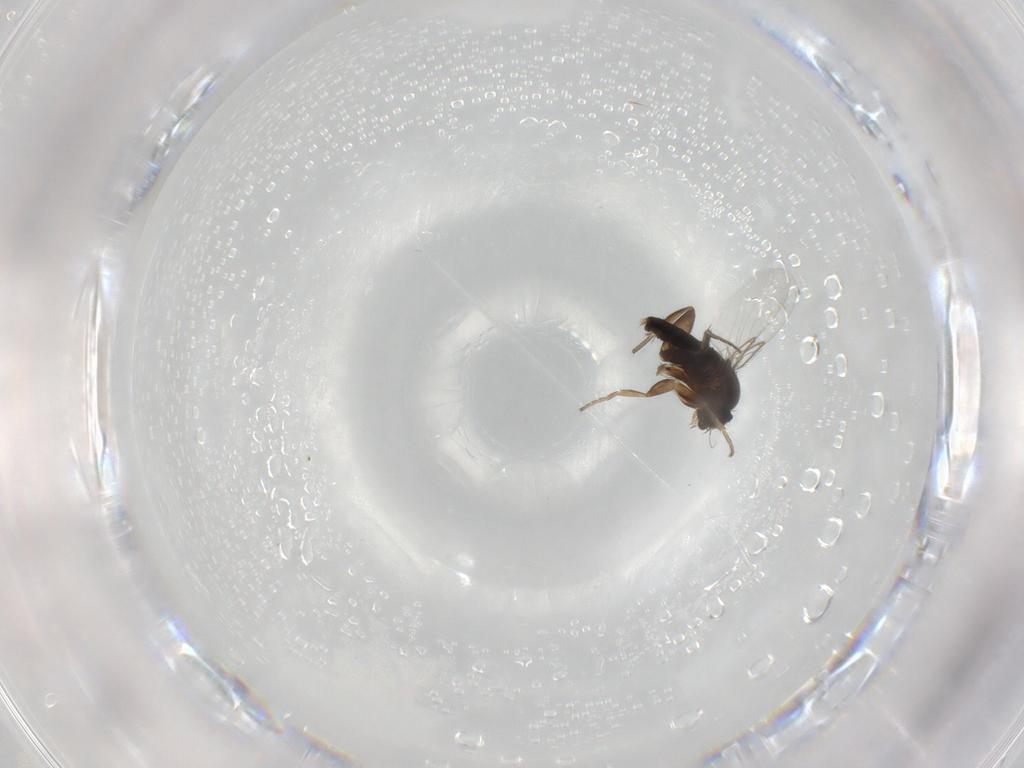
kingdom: Animalia
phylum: Arthropoda
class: Insecta
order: Diptera
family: Phoridae
